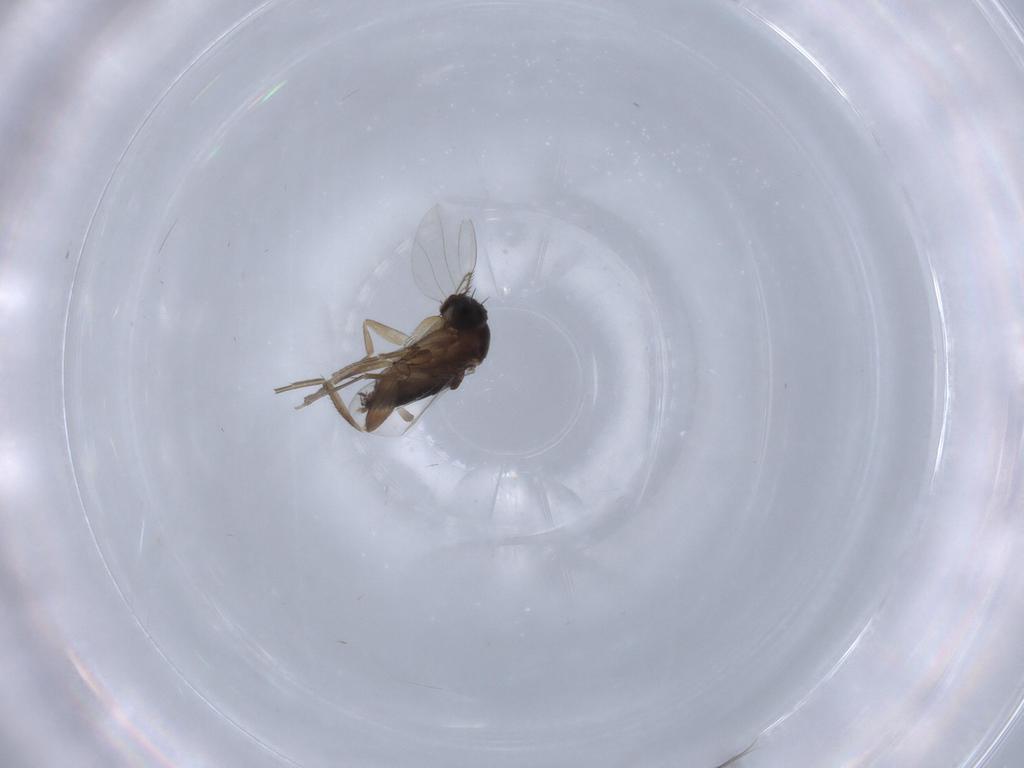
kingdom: Animalia
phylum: Arthropoda
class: Insecta
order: Diptera
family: Phoridae
